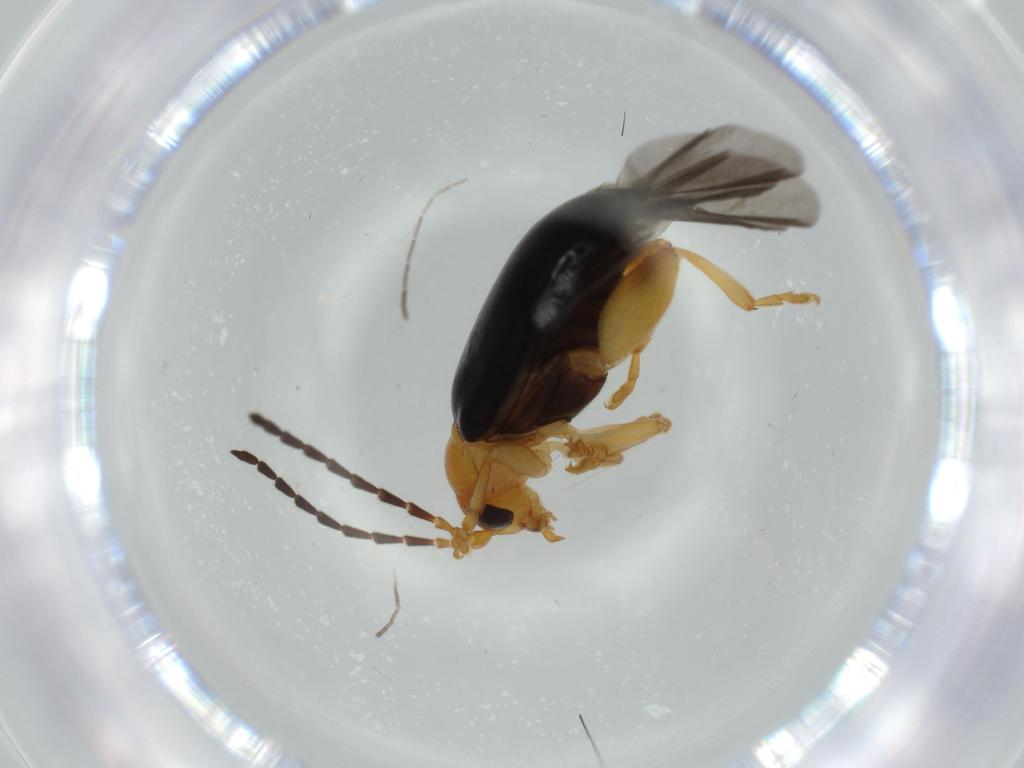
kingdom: Animalia
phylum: Arthropoda
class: Insecta
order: Coleoptera
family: Chrysomelidae
